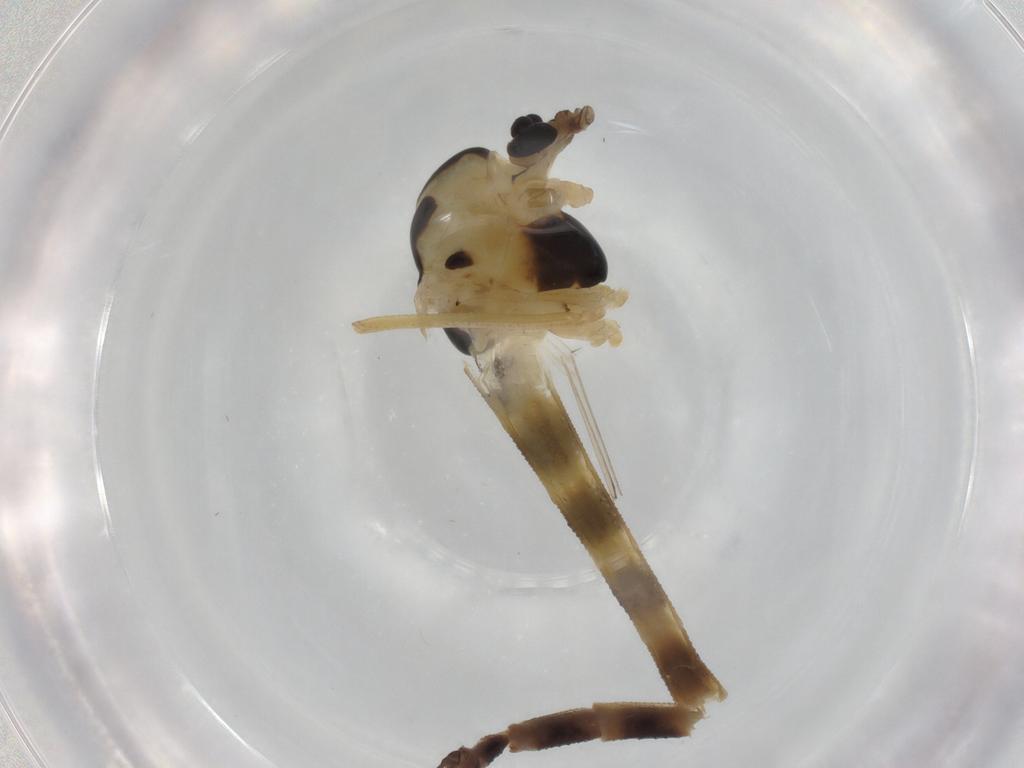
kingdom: Animalia
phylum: Arthropoda
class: Insecta
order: Diptera
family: Chironomidae
